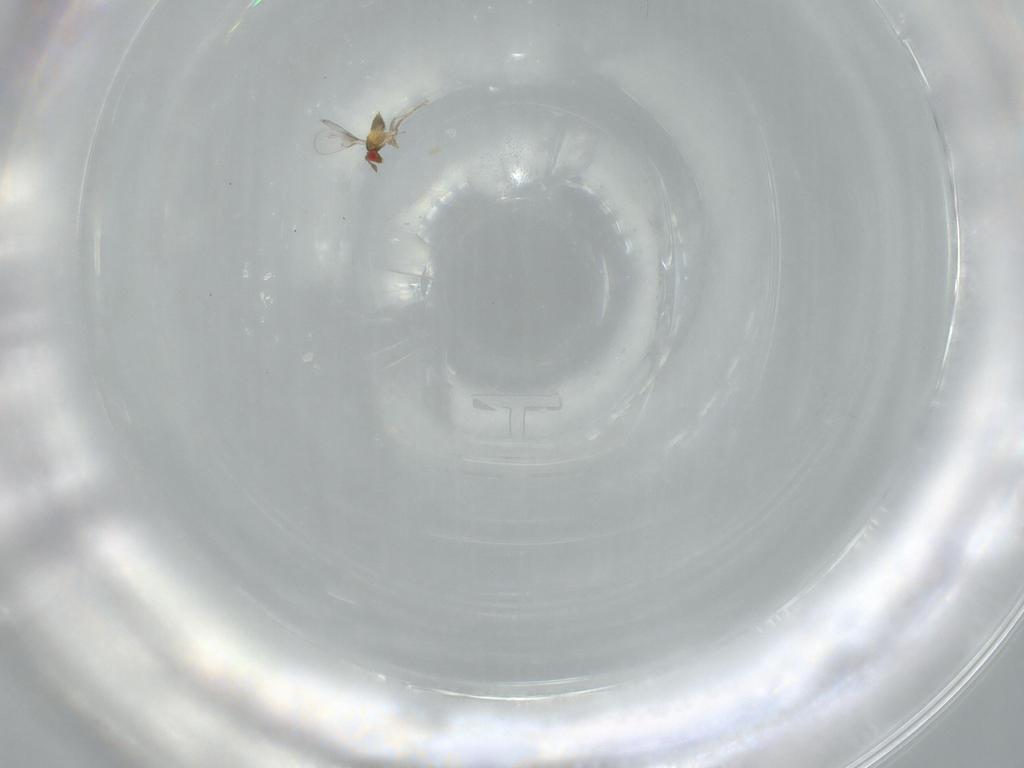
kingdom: Animalia
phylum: Arthropoda
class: Insecta
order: Hymenoptera
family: Trichogrammatidae
